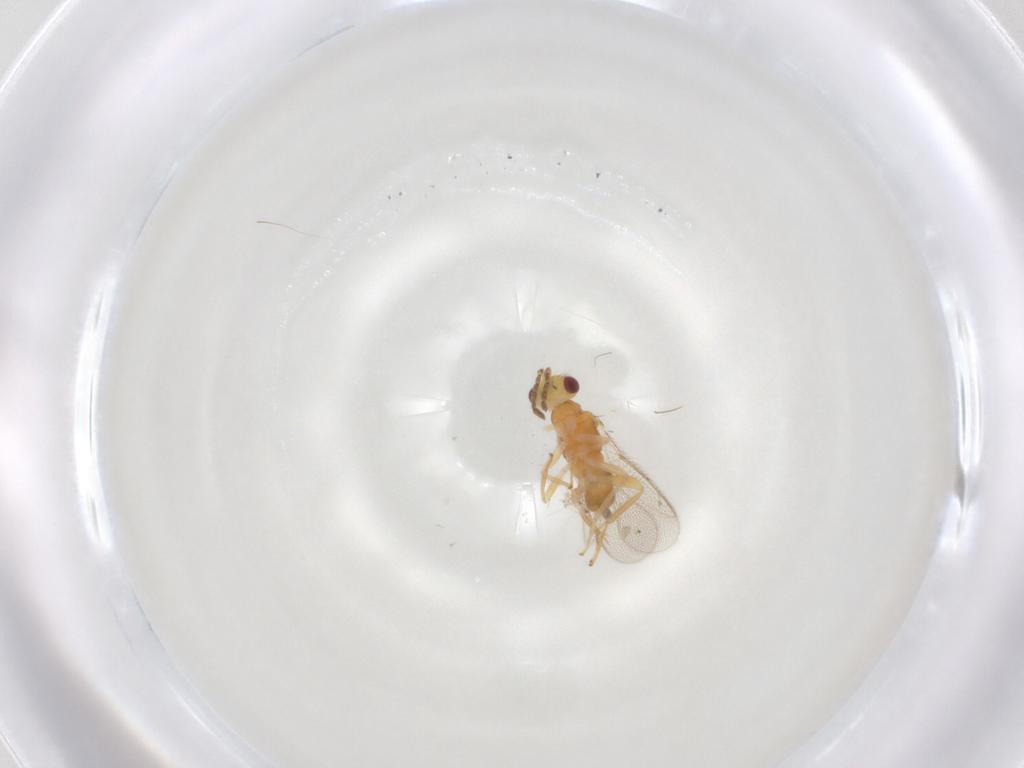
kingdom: Animalia
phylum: Arthropoda
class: Insecta
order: Hymenoptera
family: Eulophidae
